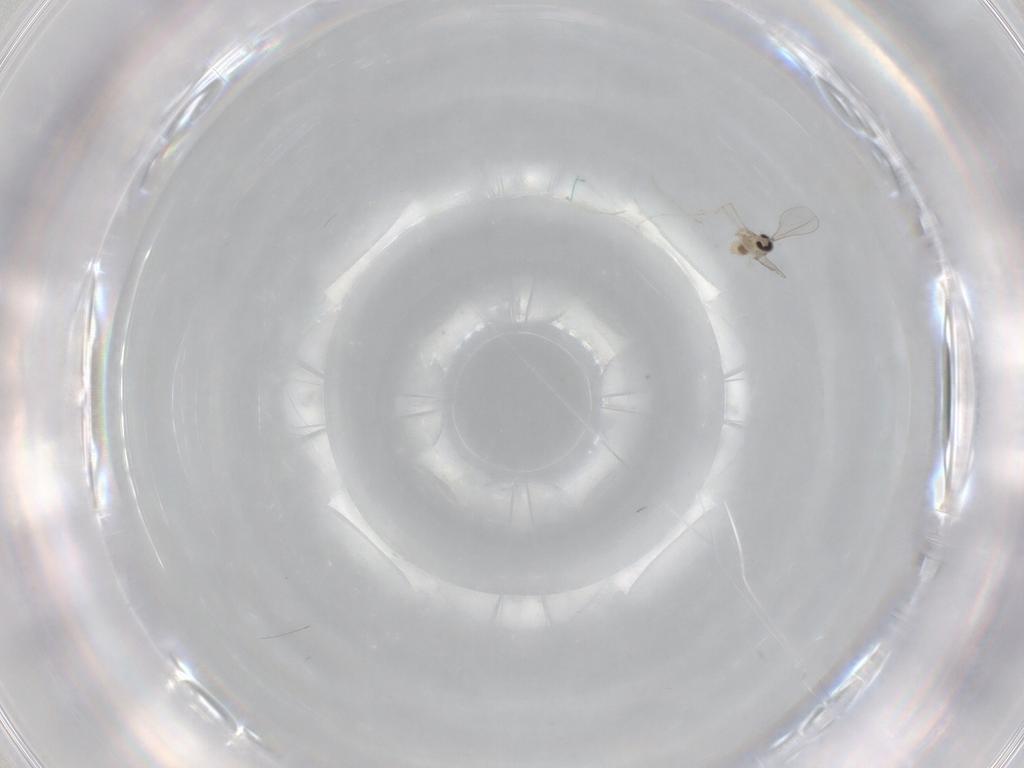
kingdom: Animalia
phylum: Arthropoda
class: Insecta
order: Diptera
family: Cecidomyiidae
